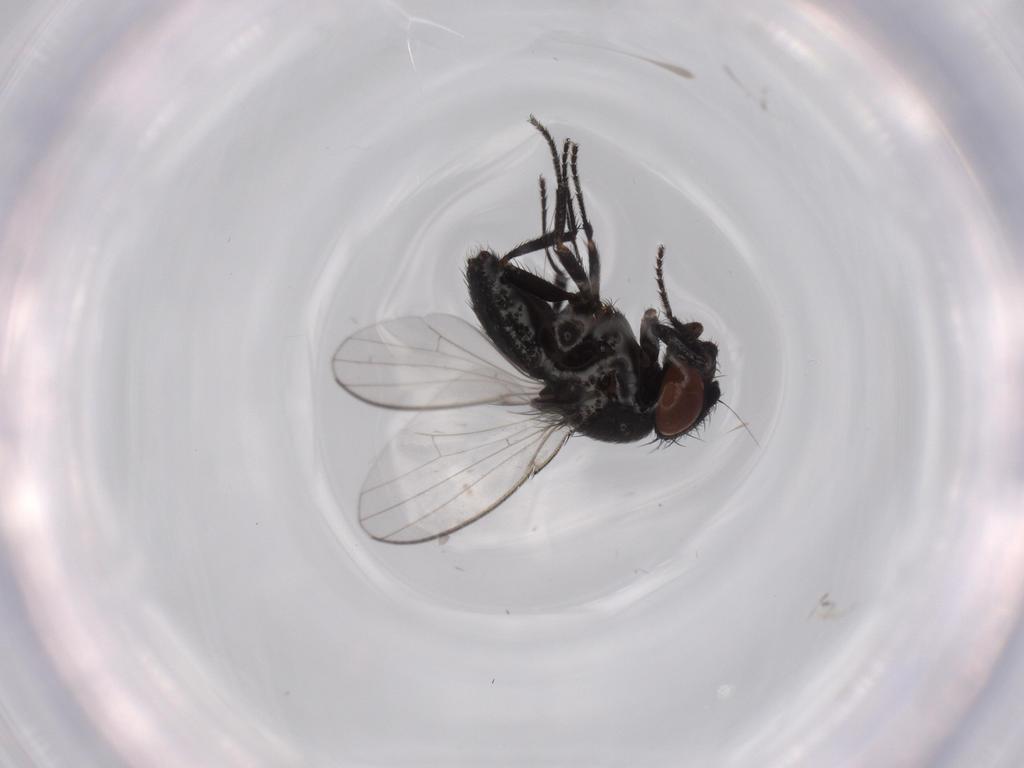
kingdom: Animalia
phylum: Arthropoda
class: Insecta
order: Diptera
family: Milichiidae
